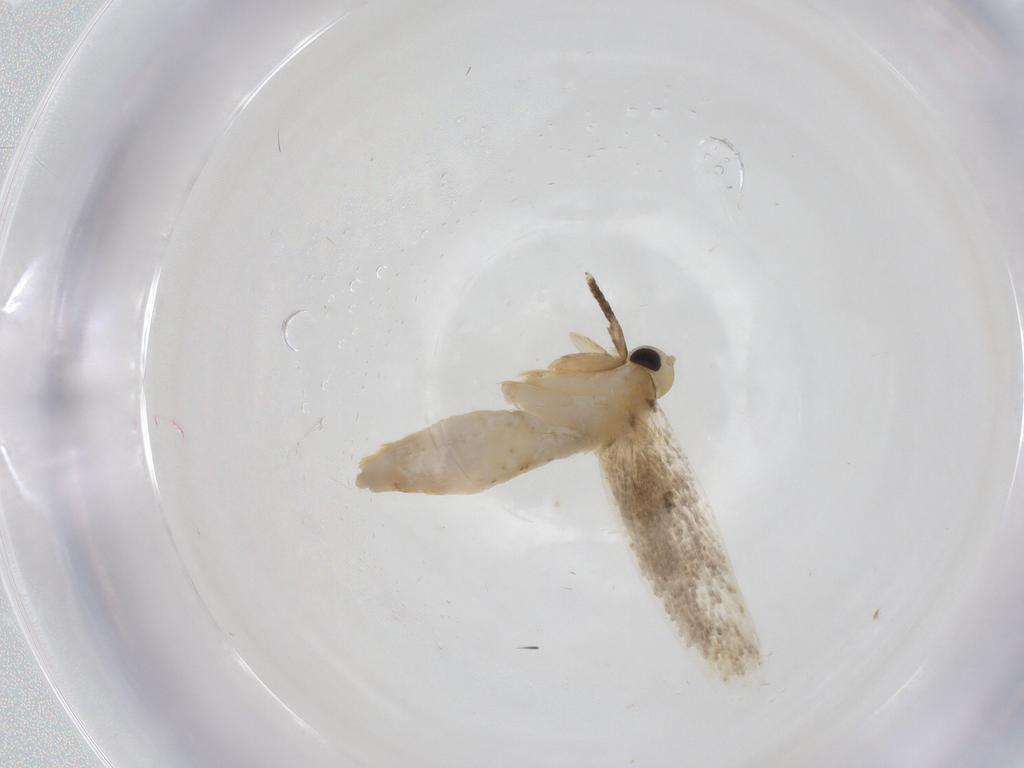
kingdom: Animalia
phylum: Arthropoda
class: Insecta
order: Lepidoptera
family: Erebidae
